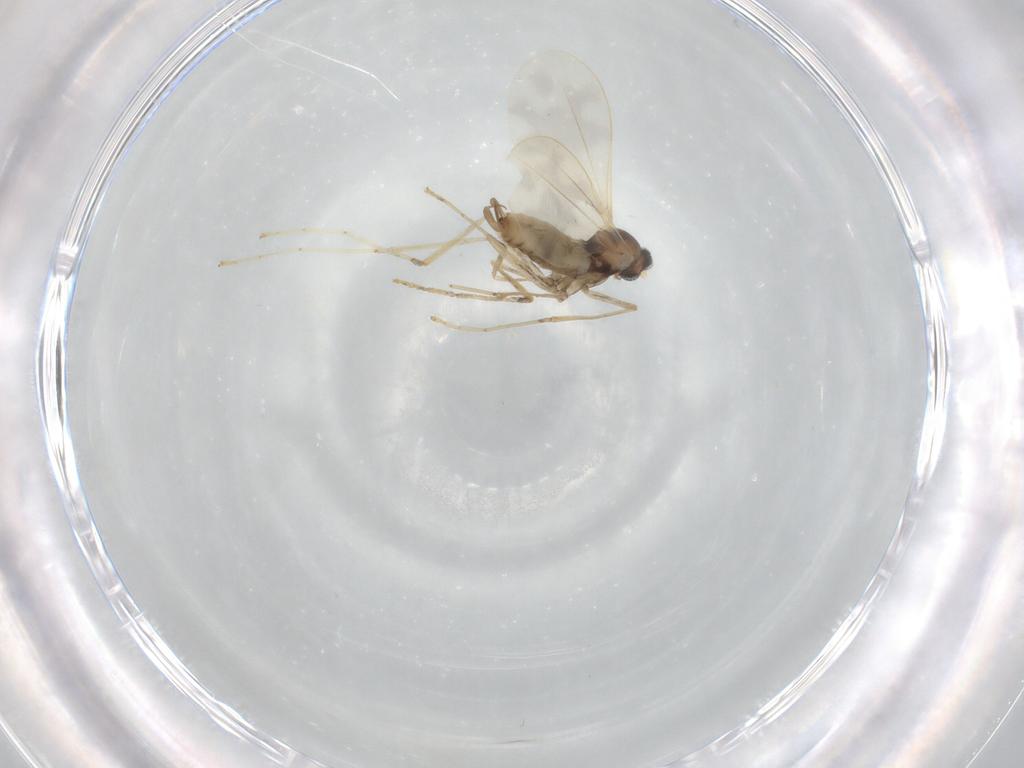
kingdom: Animalia
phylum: Arthropoda
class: Insecta
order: Diptera
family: Cecidomyiidae
